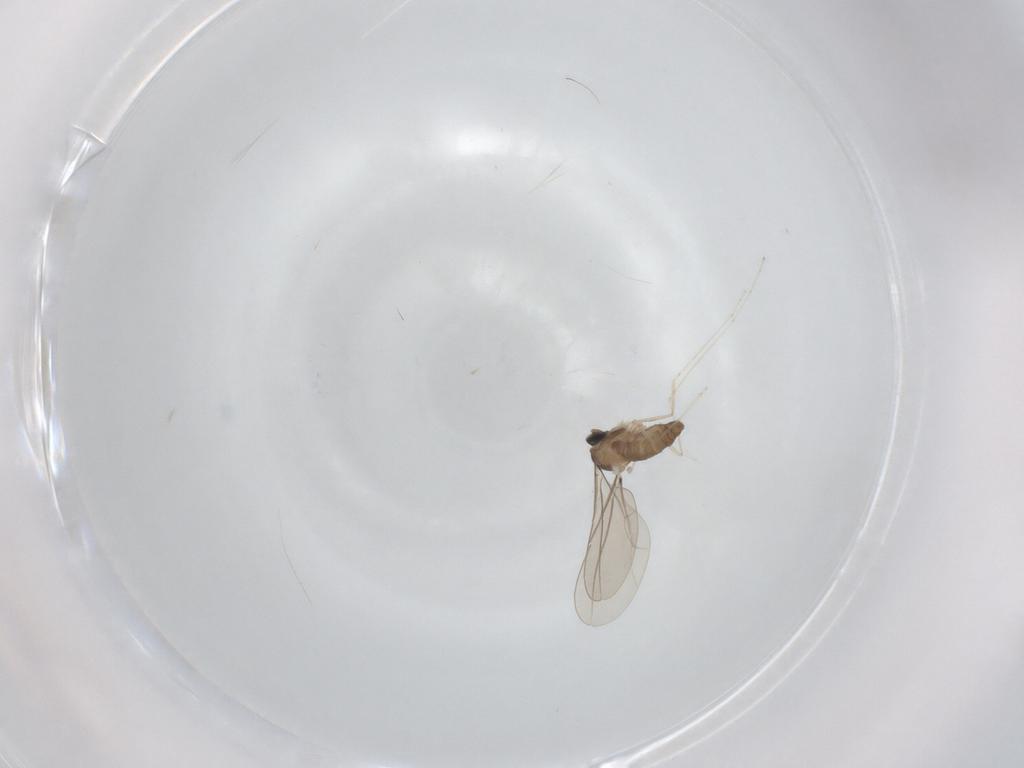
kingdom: Animalia
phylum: Arthropoda
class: Insecta
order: Diptera
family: Cecidomyiidae
